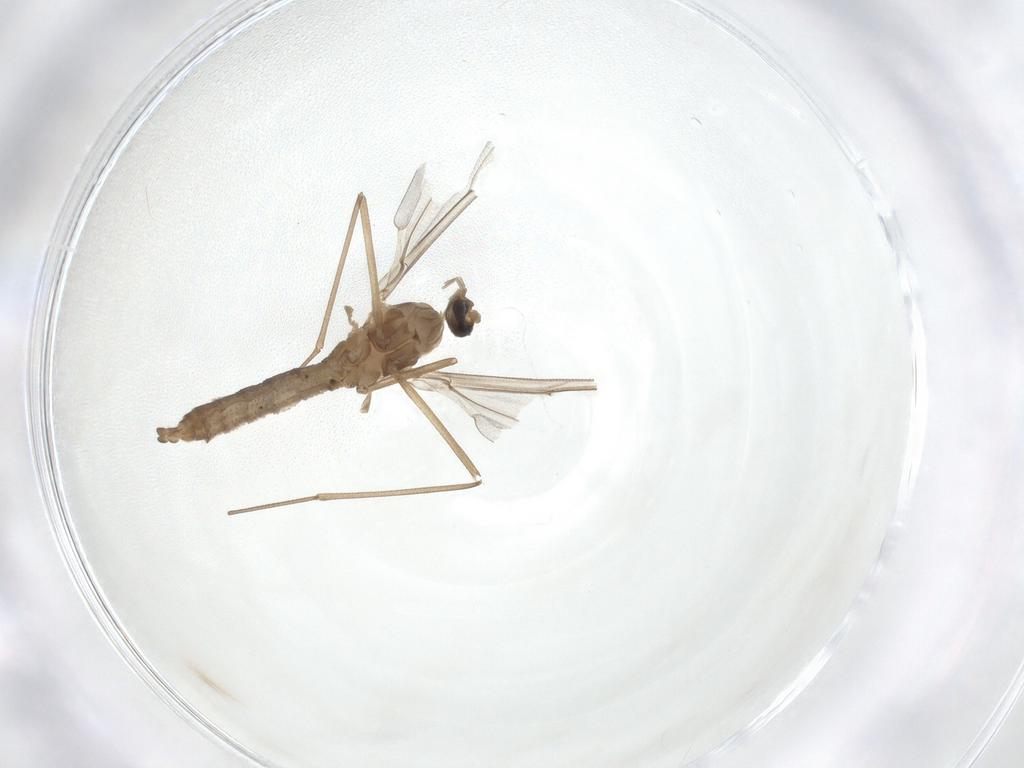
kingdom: Animalia
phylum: Arthropoda
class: Insecta
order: Diptera
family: Cecidomyiidae
